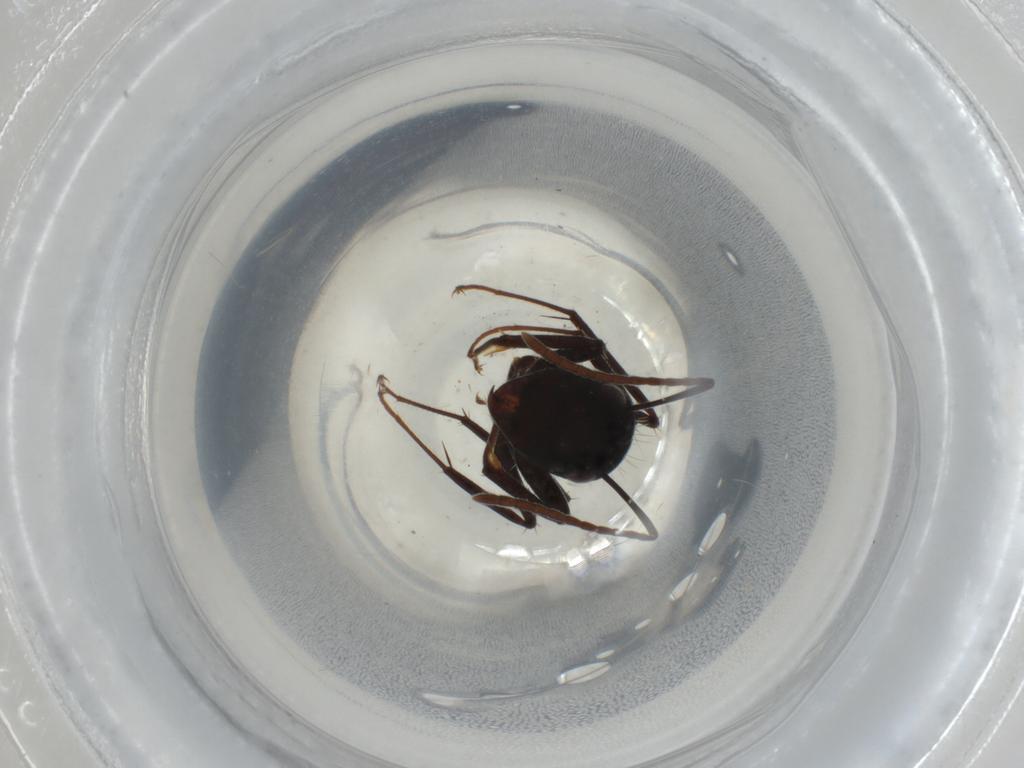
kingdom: Animalia
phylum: Arthropoda
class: Insecta
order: Hymenoptera
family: Formicidae
